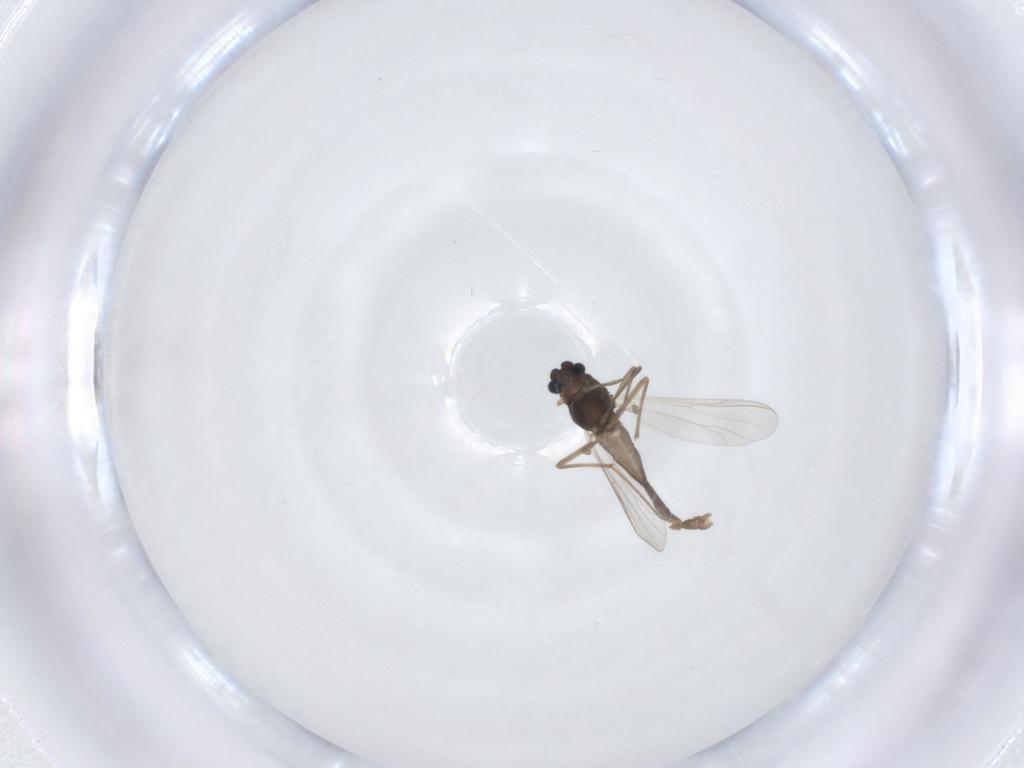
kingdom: Animalia
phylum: Arthropoda
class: Insecta
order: Diptera
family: Chironomidae
